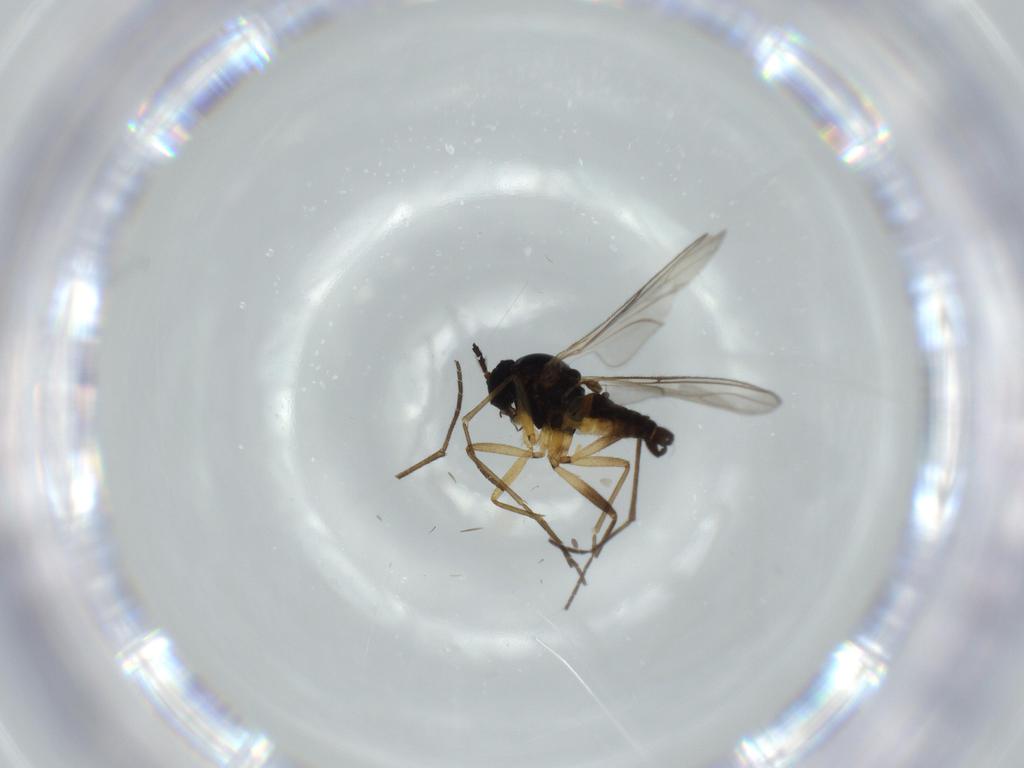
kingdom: Animalia
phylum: Arthropoda
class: Insecta
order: Diptera
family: Sciaridae
